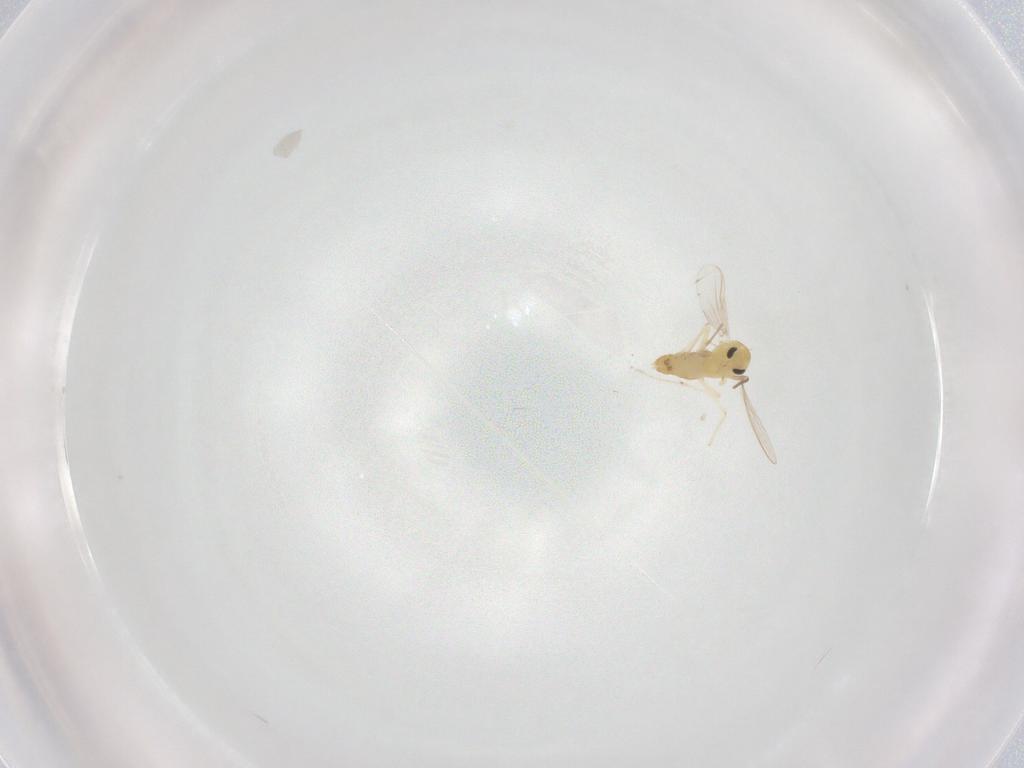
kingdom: Animalia
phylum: Arthropoda
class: Insecta
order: Diptera
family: Chironomidae
